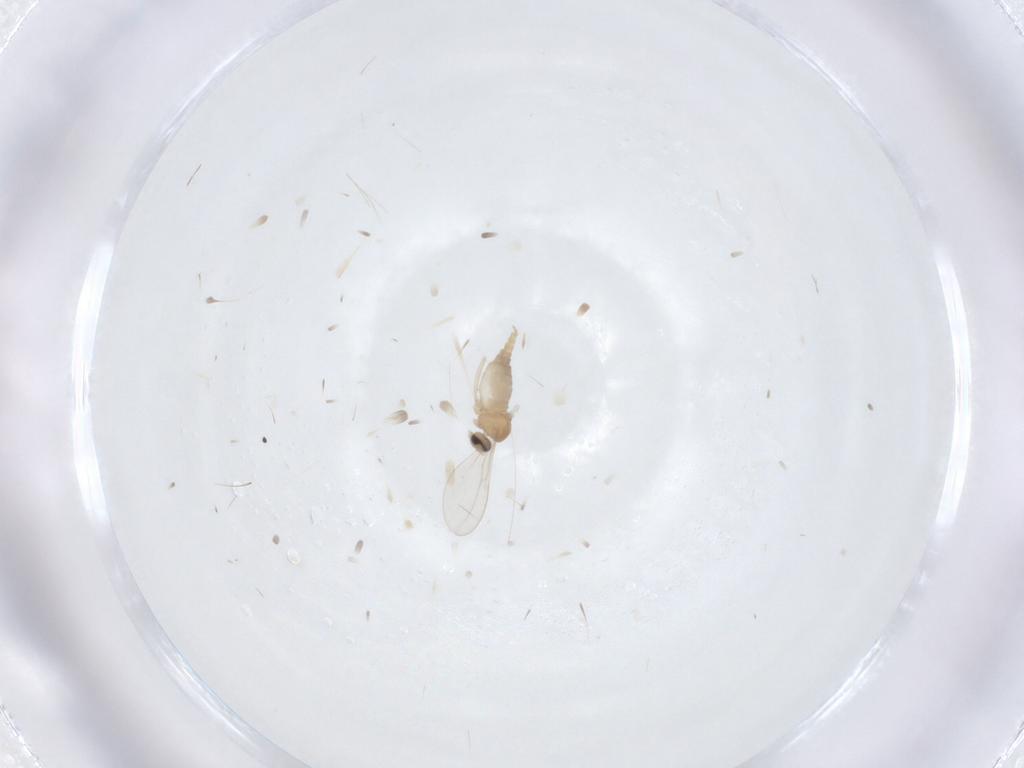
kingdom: Animalia
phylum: Arthropoda
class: Insecta
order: Diptera
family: Cecidomyiidae
